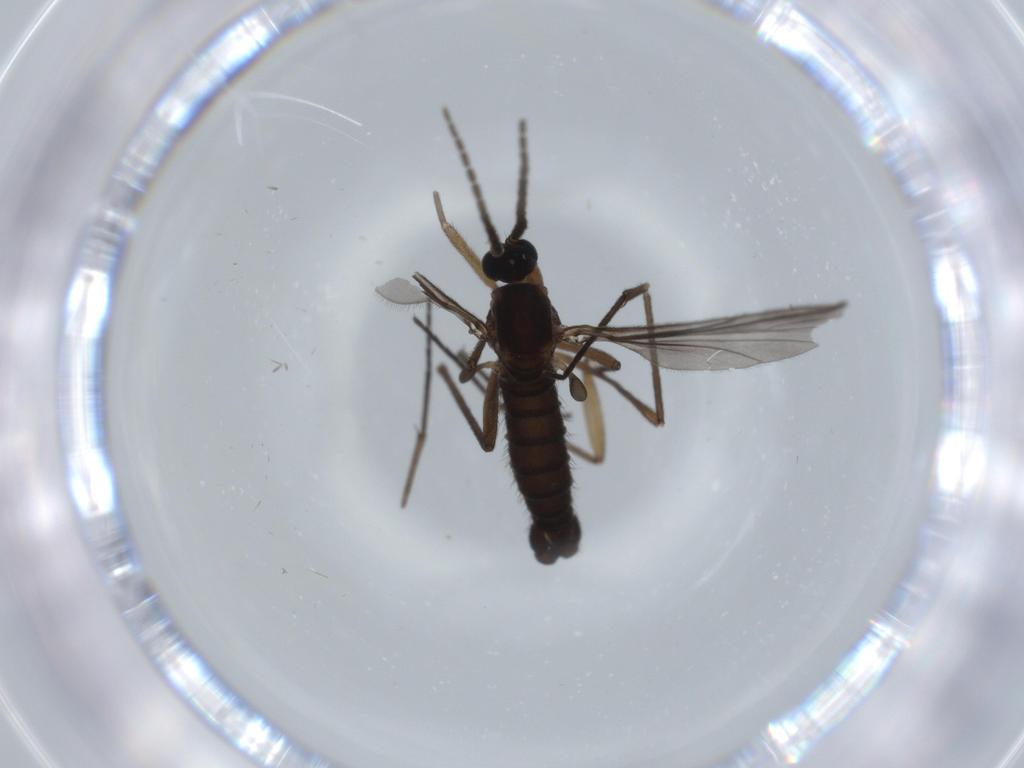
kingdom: Animalia
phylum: Arthropoda
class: Insecta
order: Diptera
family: Sciaridae
